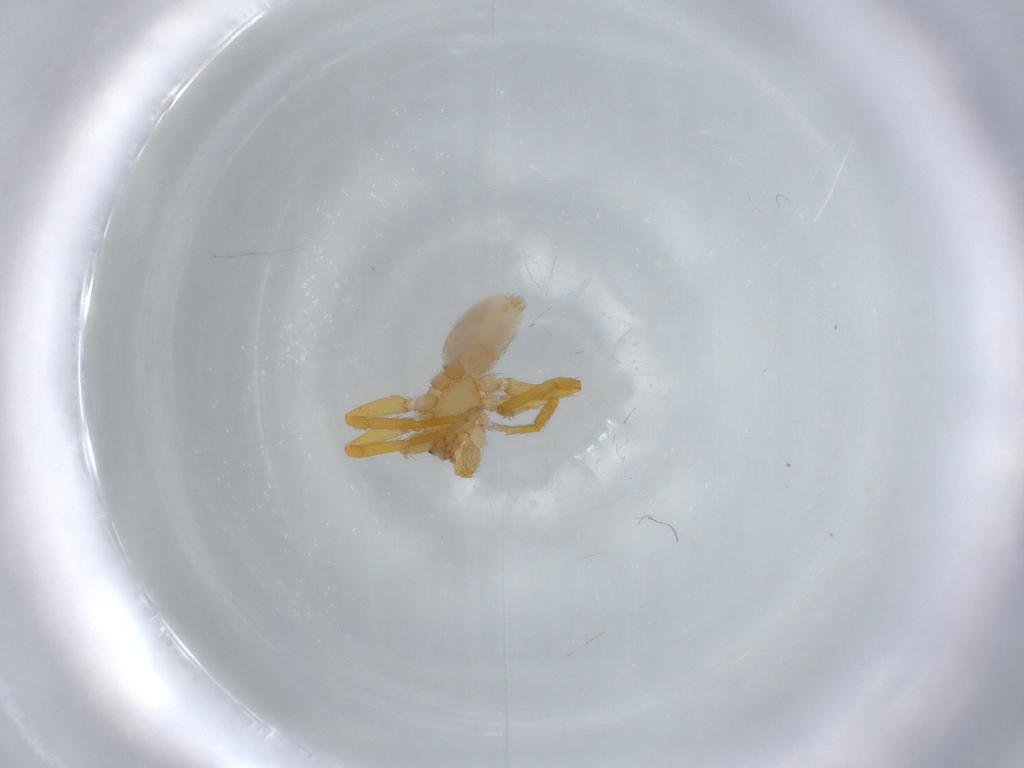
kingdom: Animalia
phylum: Arthropoda
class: Arachnida
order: Araneae
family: Oonopidae
